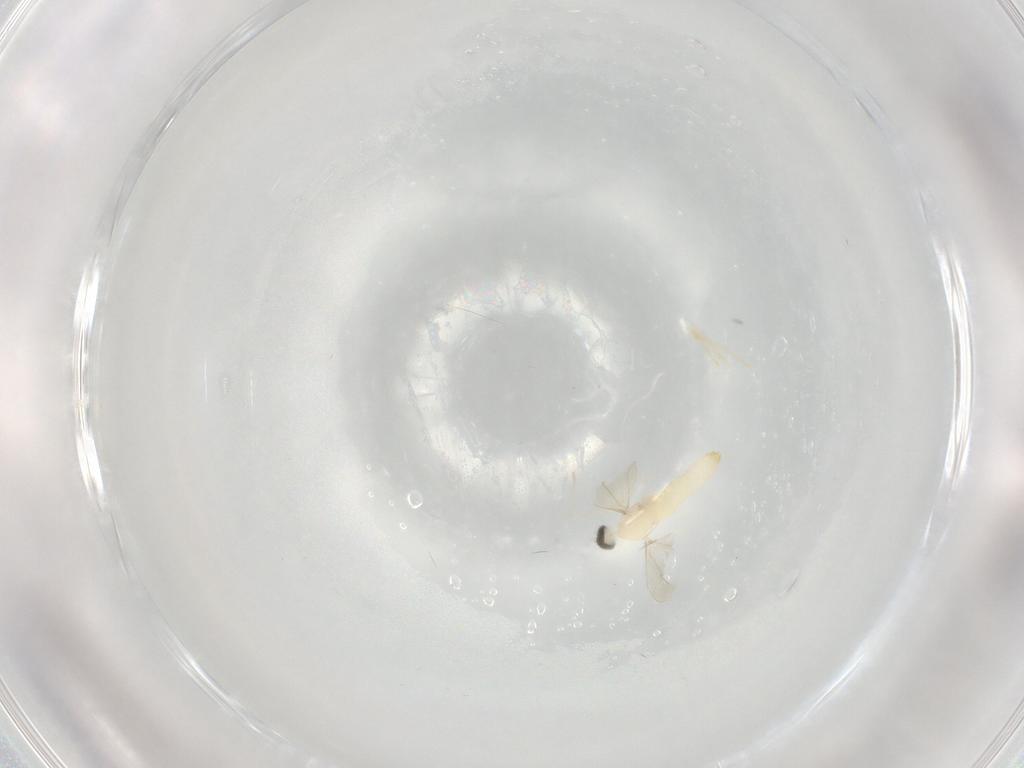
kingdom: Animalia
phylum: Arthropoda
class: Insecta
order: Diptera
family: Cecidomyiidae
